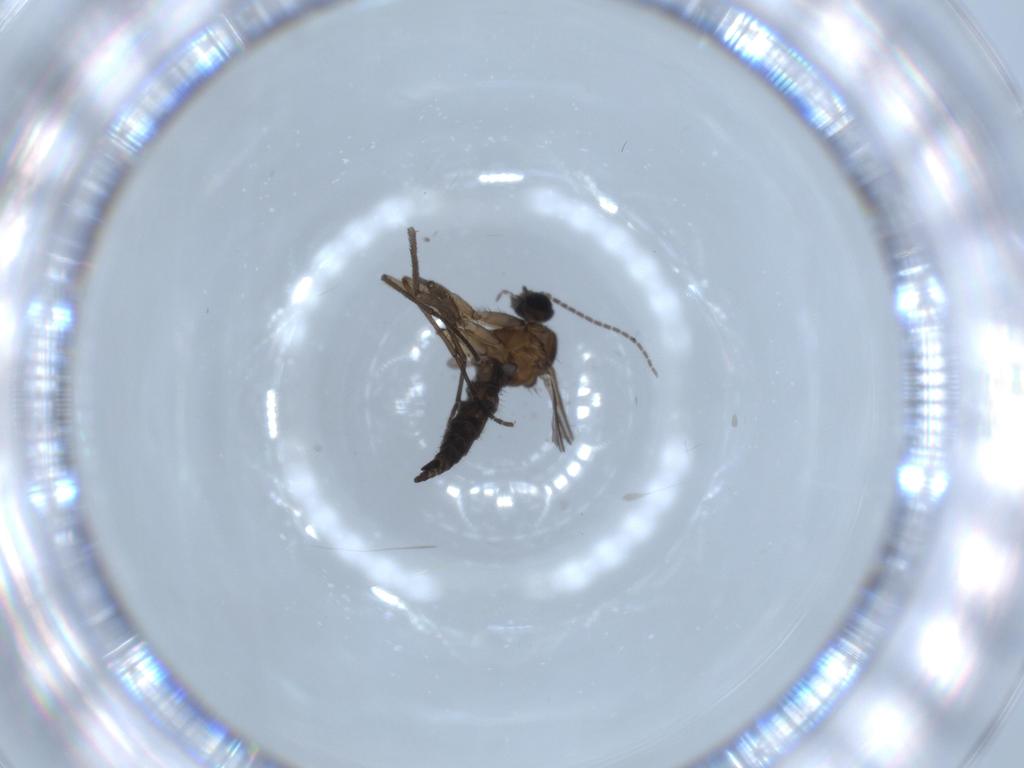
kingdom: Animalia
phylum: Arthropoda
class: Insecta
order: Diptera
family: Sciaridae
